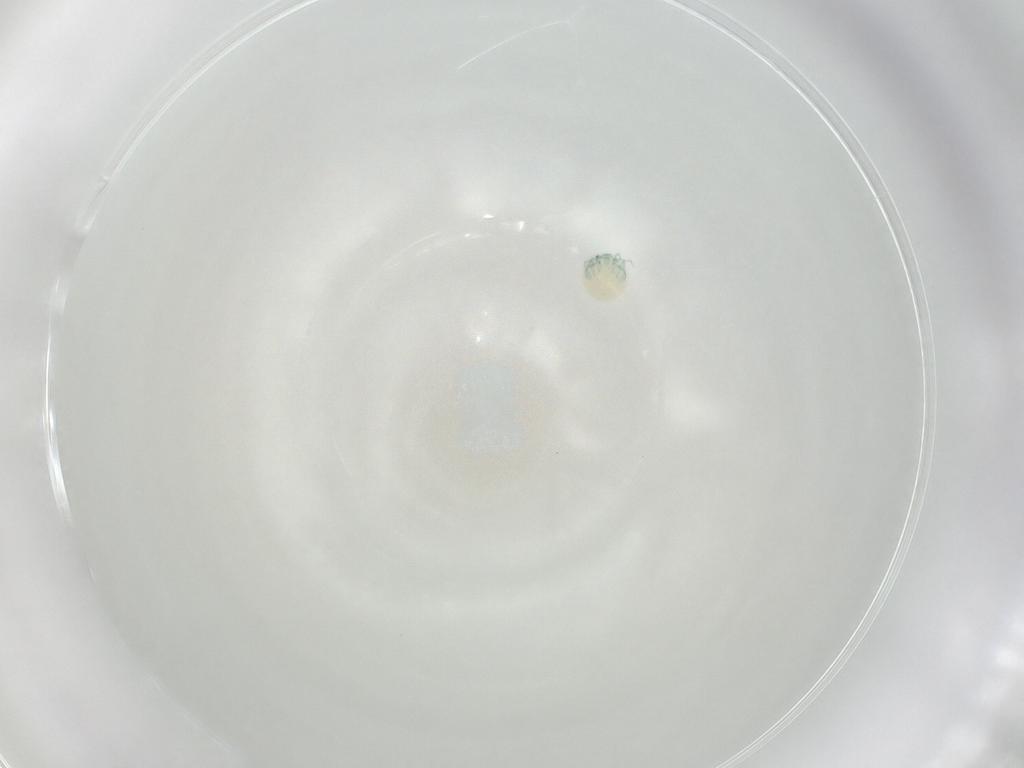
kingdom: Animalia
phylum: Arthropoda
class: Arachnida
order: Trombidiformes
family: Arrenuridae
